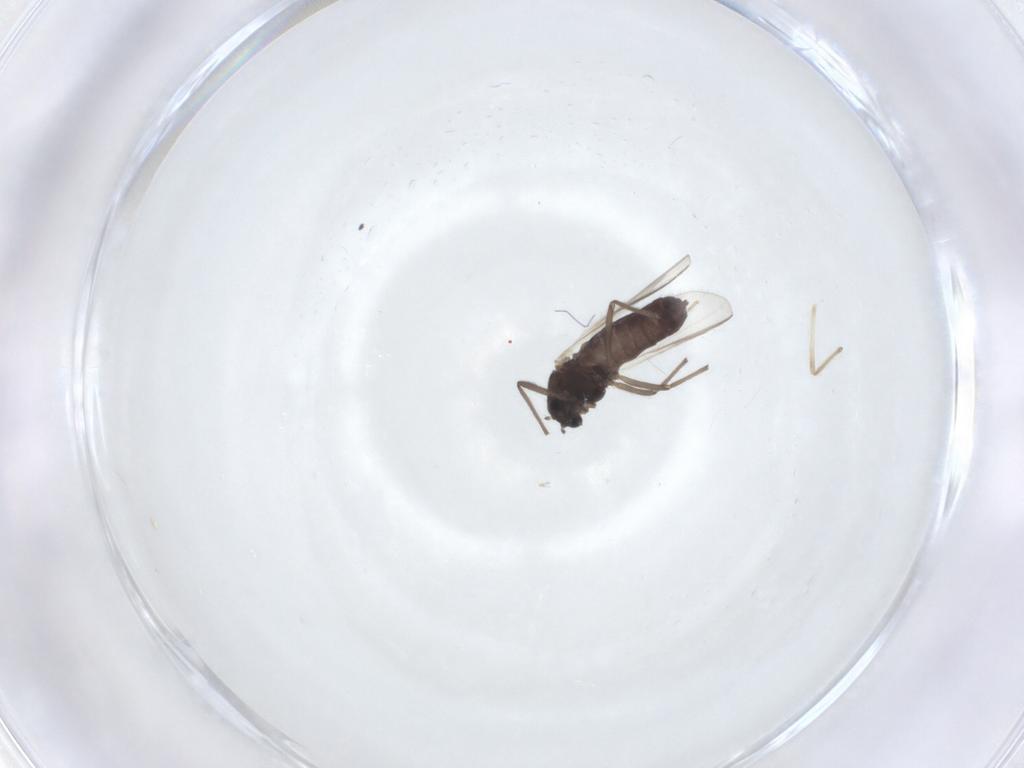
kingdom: Animalia
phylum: Arthropoda
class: Insecta
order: Diptera
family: Chironomidae
